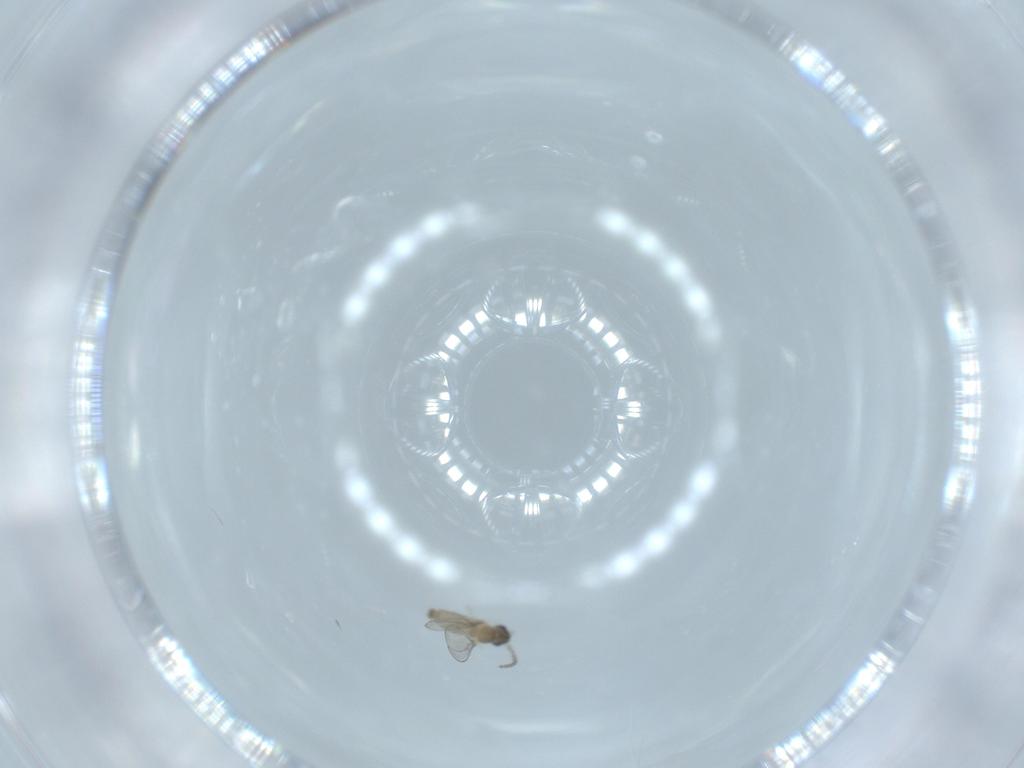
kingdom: Animalia
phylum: Arthropoda
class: Insecta
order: Diptera
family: Cecidomyiidae
